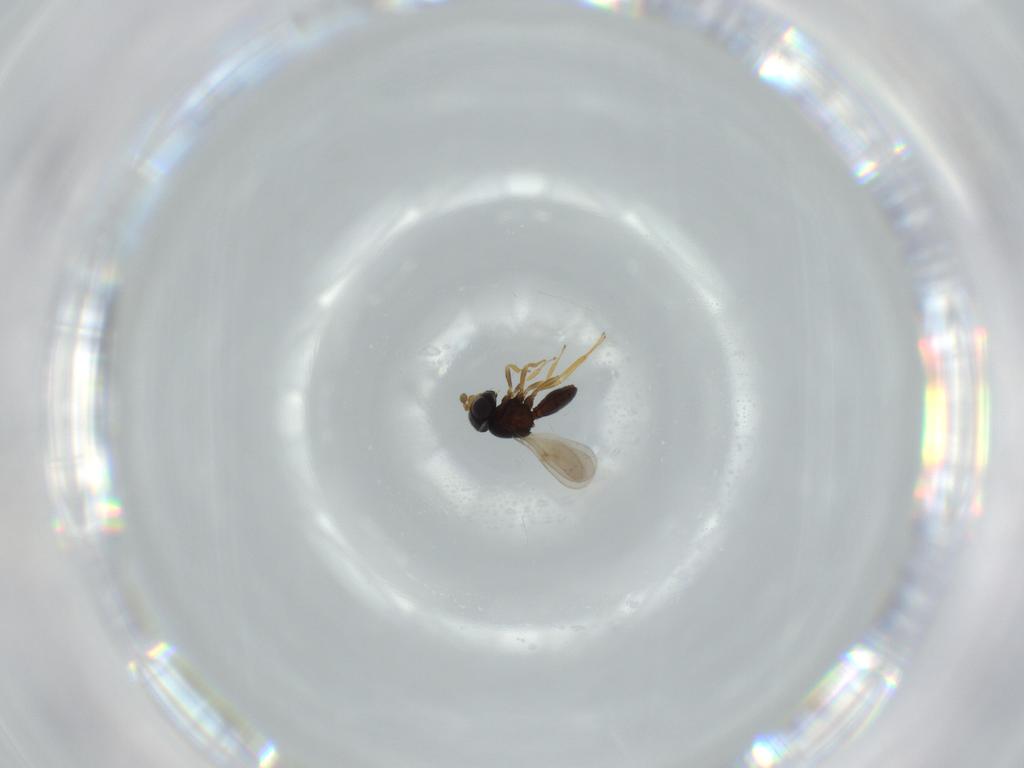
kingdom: Animalia
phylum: Arthropoda
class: Insecta
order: Hymenoptera
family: Scelionidae
